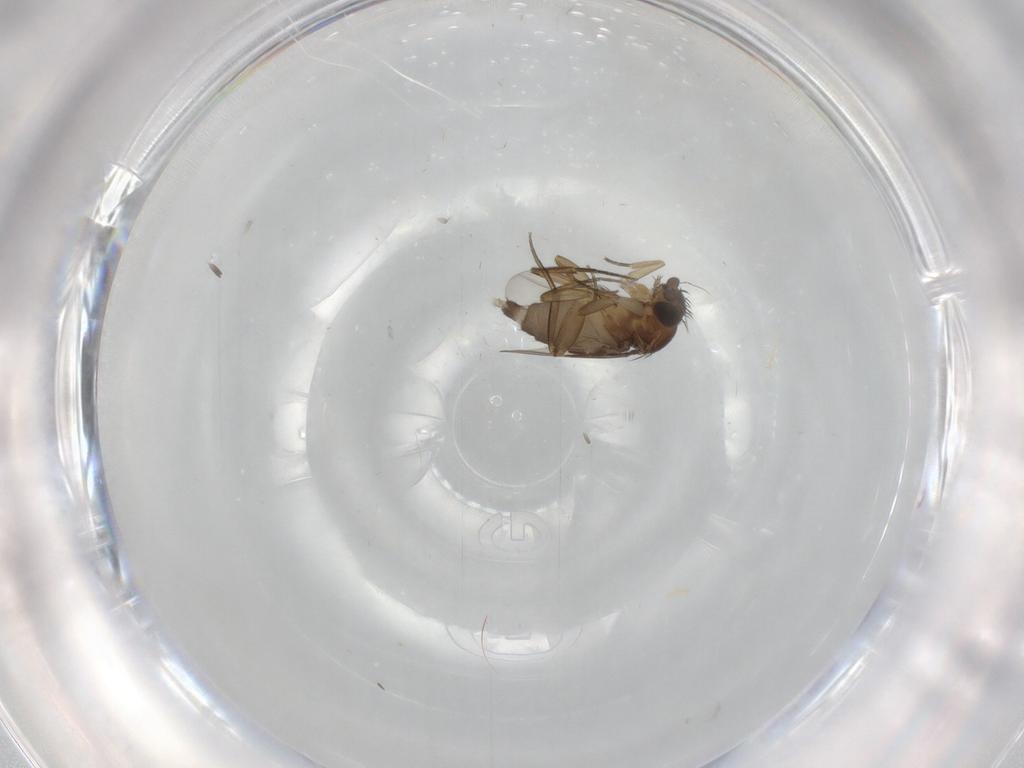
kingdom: Animalia
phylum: Arthropoda
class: Insecta
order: Diptera
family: Phoridae
